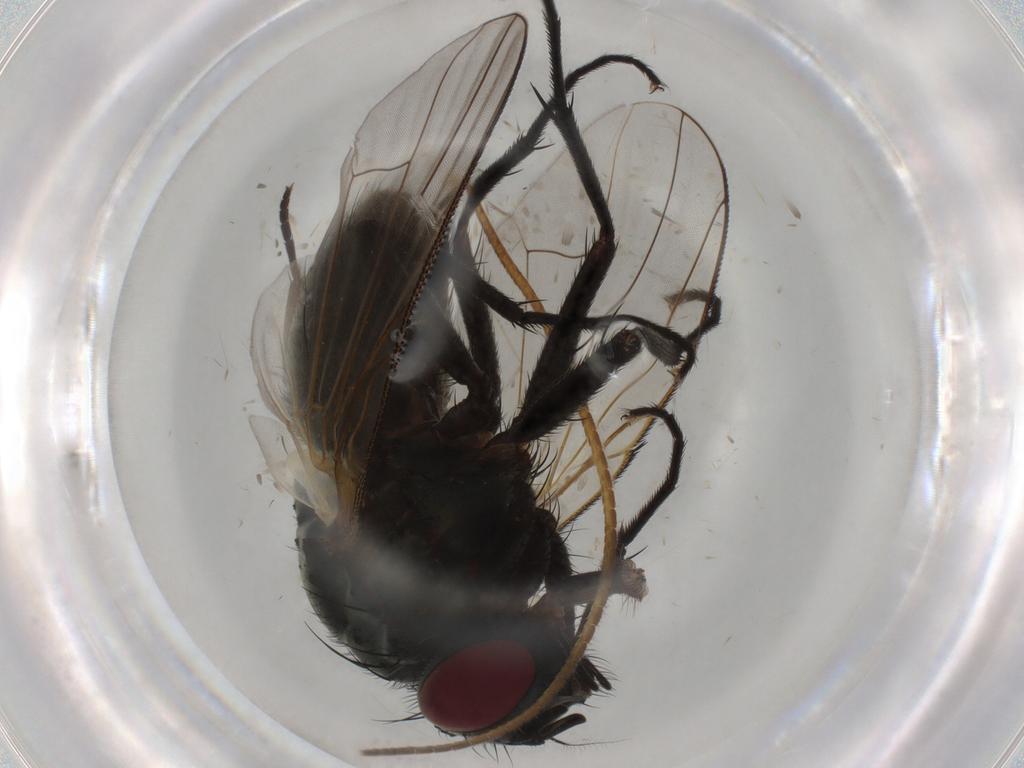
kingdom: Animalia
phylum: Arthropoda
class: Insecta
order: Diptera
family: Muscidae
